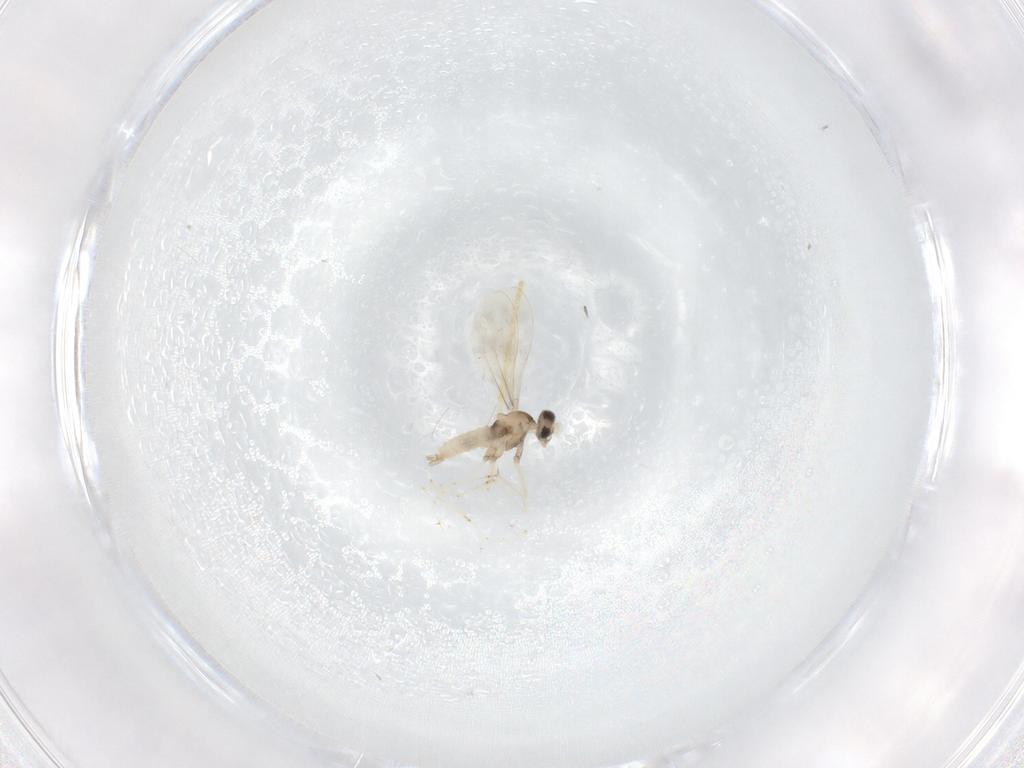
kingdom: Animalia
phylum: Arthropoda
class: Insecta
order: Diptera
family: Cecidomyiidae
